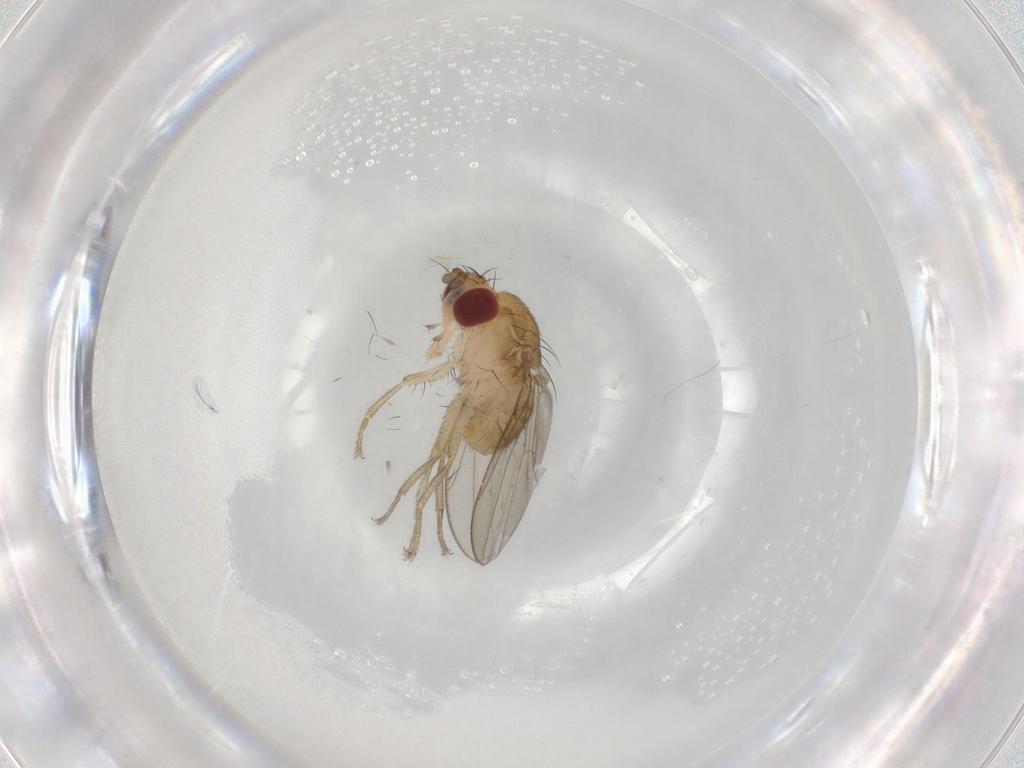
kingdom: Animalia
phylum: Arthropoda
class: Insecta
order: Diptera
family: Drosophilidae
